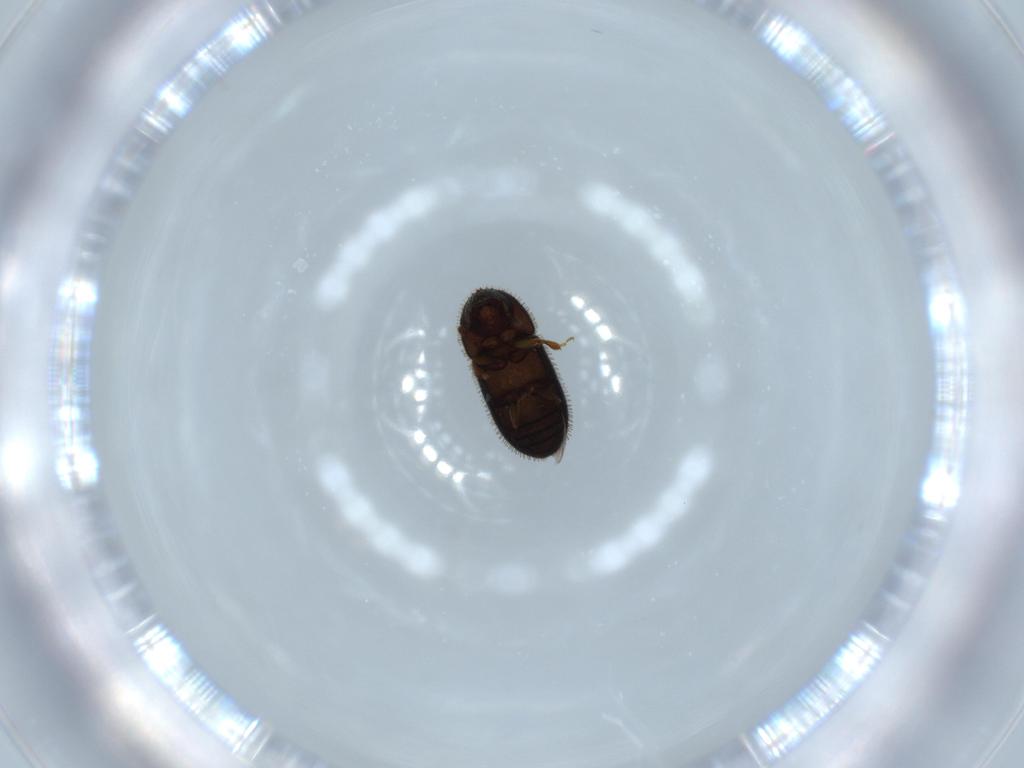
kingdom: Animalia
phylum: Arthropoda
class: Insecta
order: Coleoptera
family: Curculionidae
